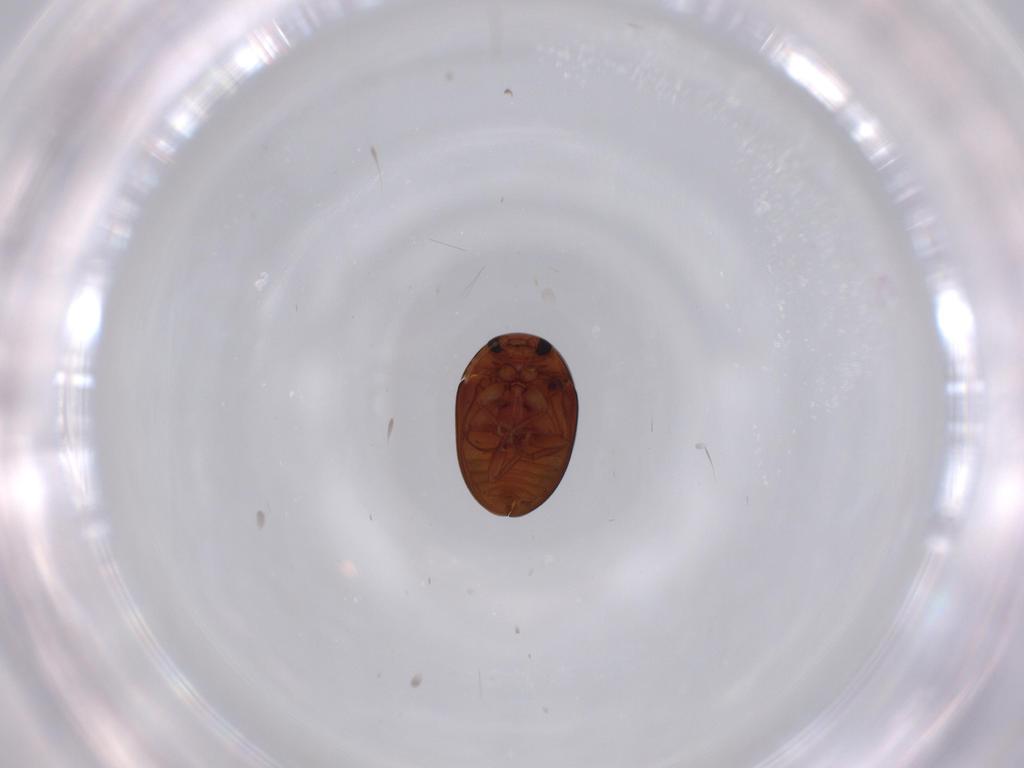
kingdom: Animalia
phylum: Arthropoda
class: Insecta
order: Coleoptera
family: Phalacridae
